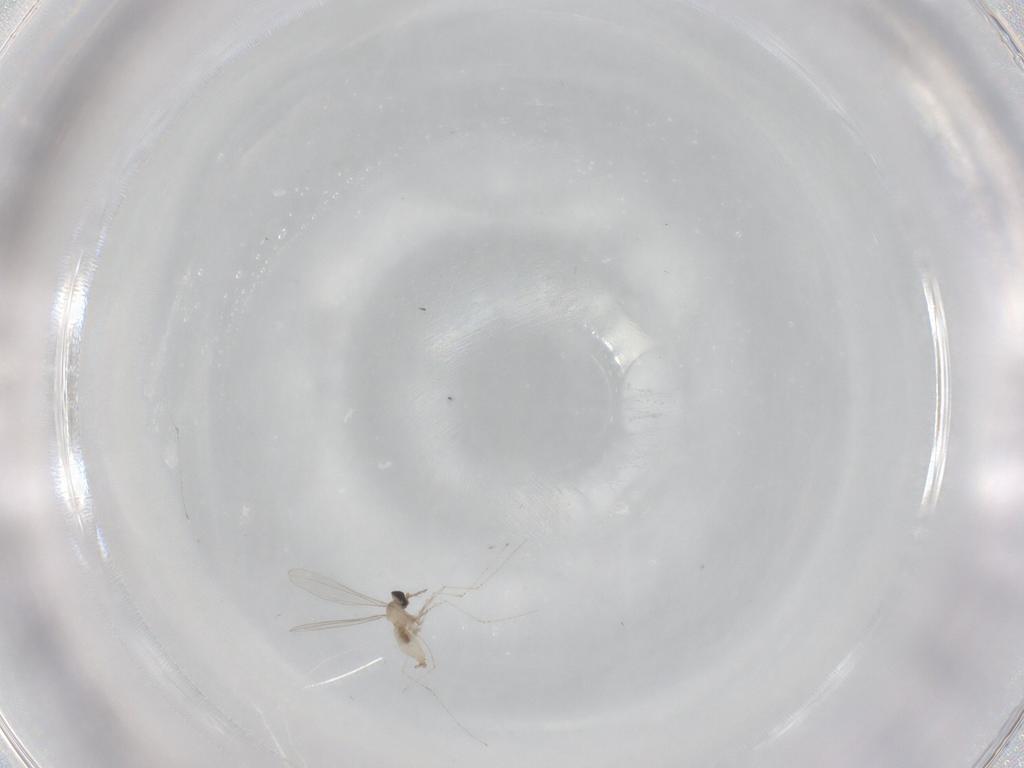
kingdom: Animalia
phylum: Arthropoda
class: Insecta
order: Diptera
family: Cecidomyiidae
